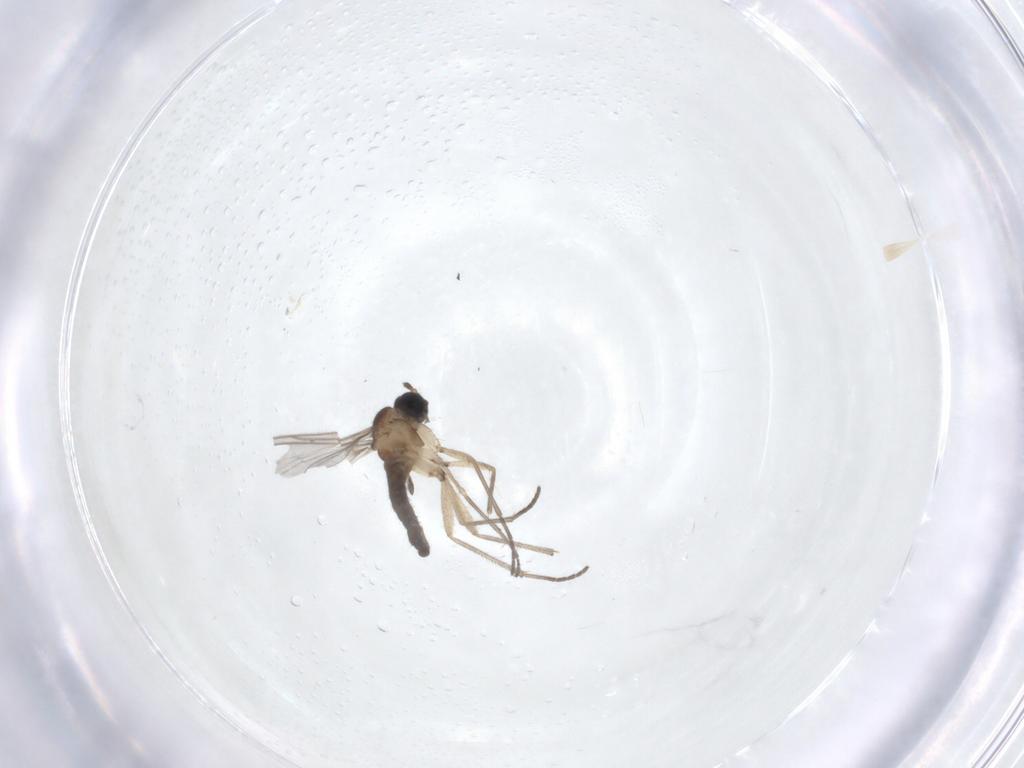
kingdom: Animalia
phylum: Arthropoda
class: Insecta
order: Diptera
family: Sciaridae
